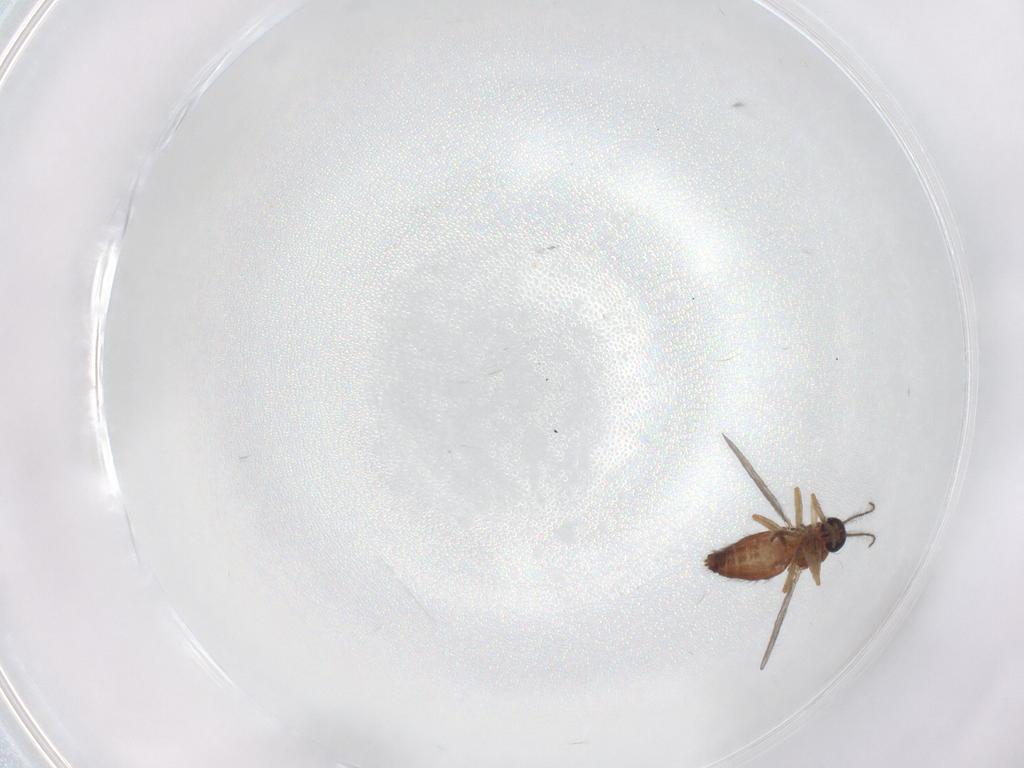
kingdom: Animalia
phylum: Arthropoda
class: Insecta
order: Diptera
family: Ceratopogonidae
